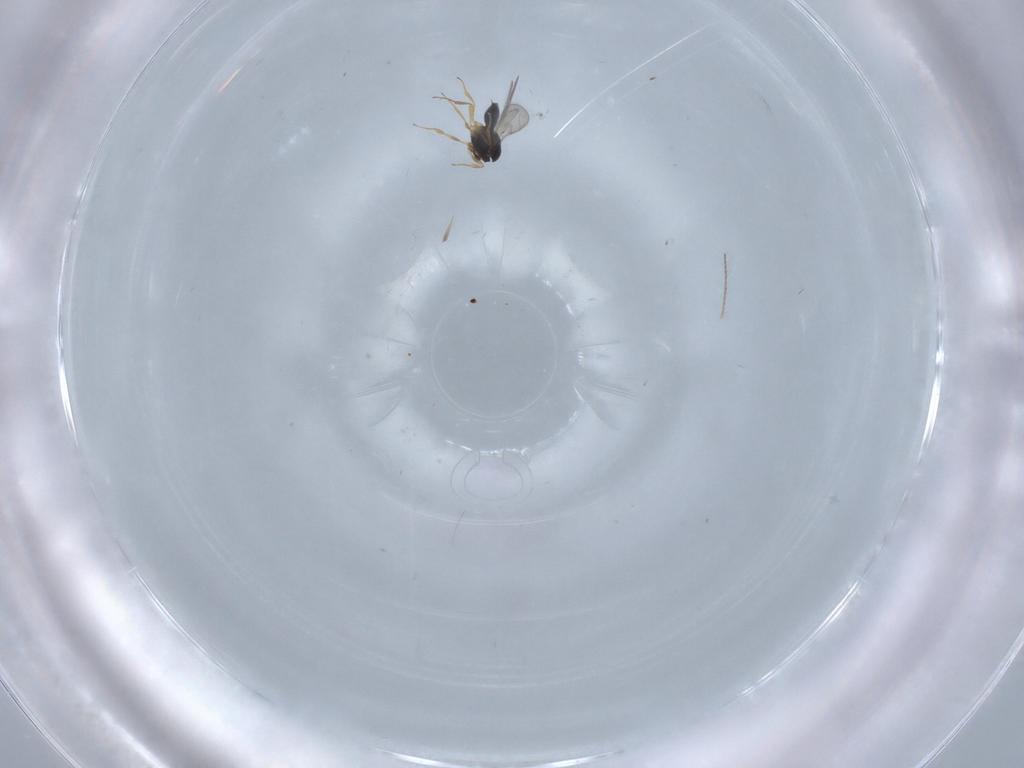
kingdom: Animalia
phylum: Arthropoda
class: Insecta
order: Hymenoptera
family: Scelionidae
